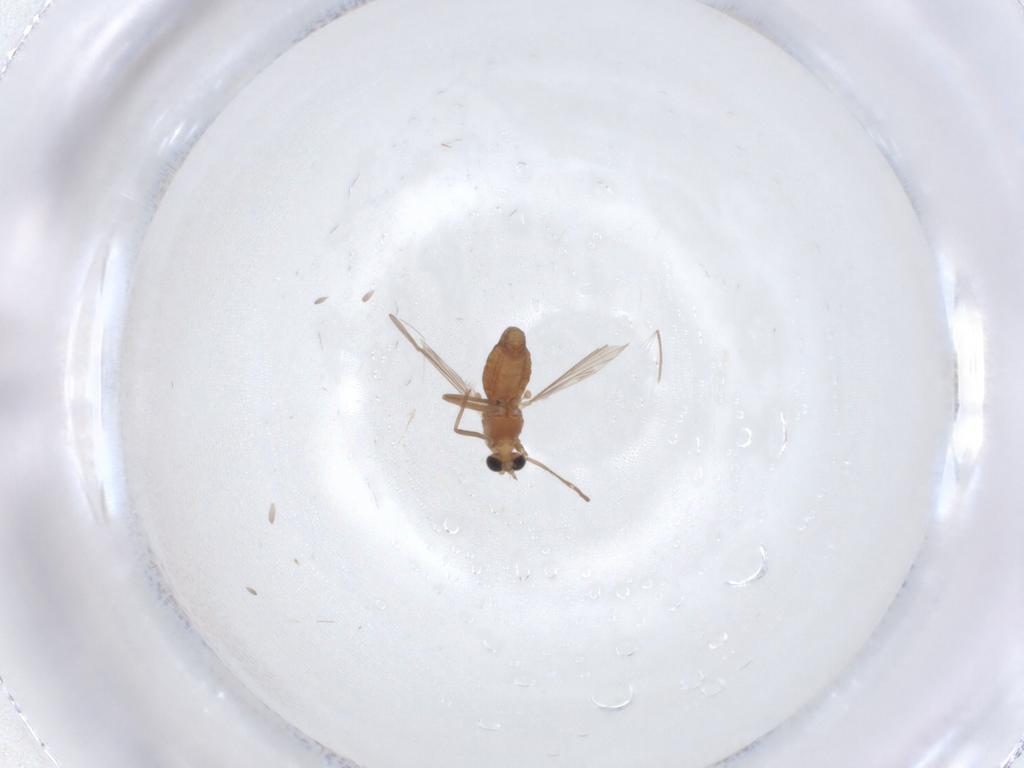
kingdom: Animalia
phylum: Arthropoda
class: Insecta
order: Diptera
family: Chironomidae
